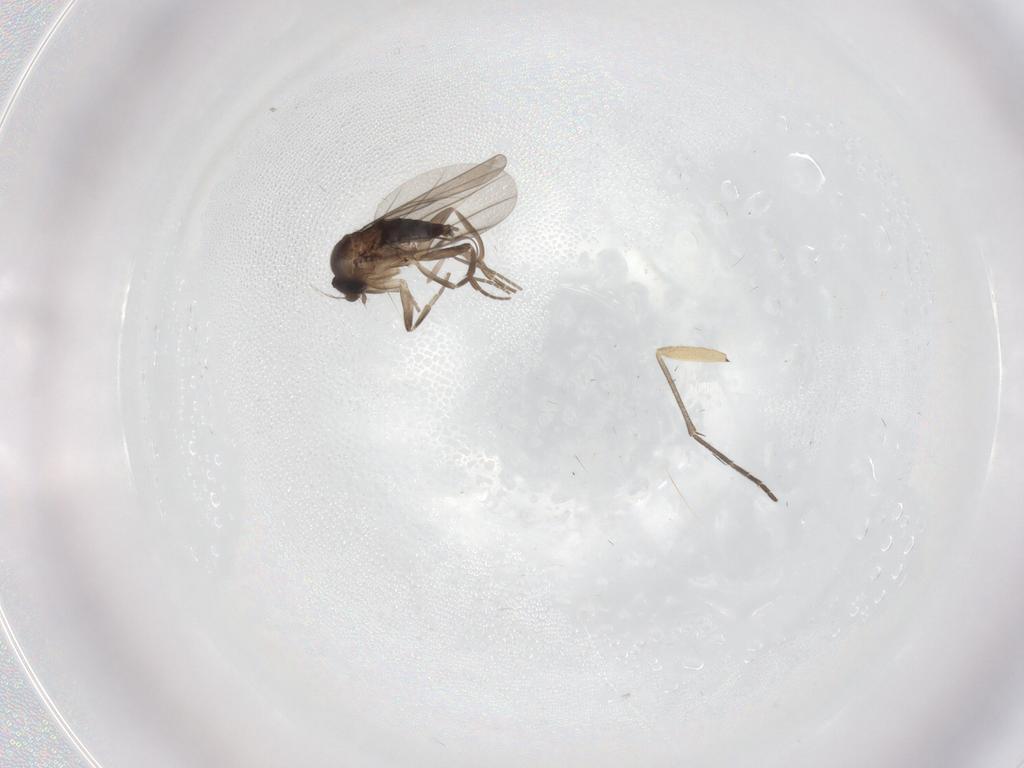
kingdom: Animalia
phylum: Arthropoda
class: Insecta
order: Diptera
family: Sciaridae
